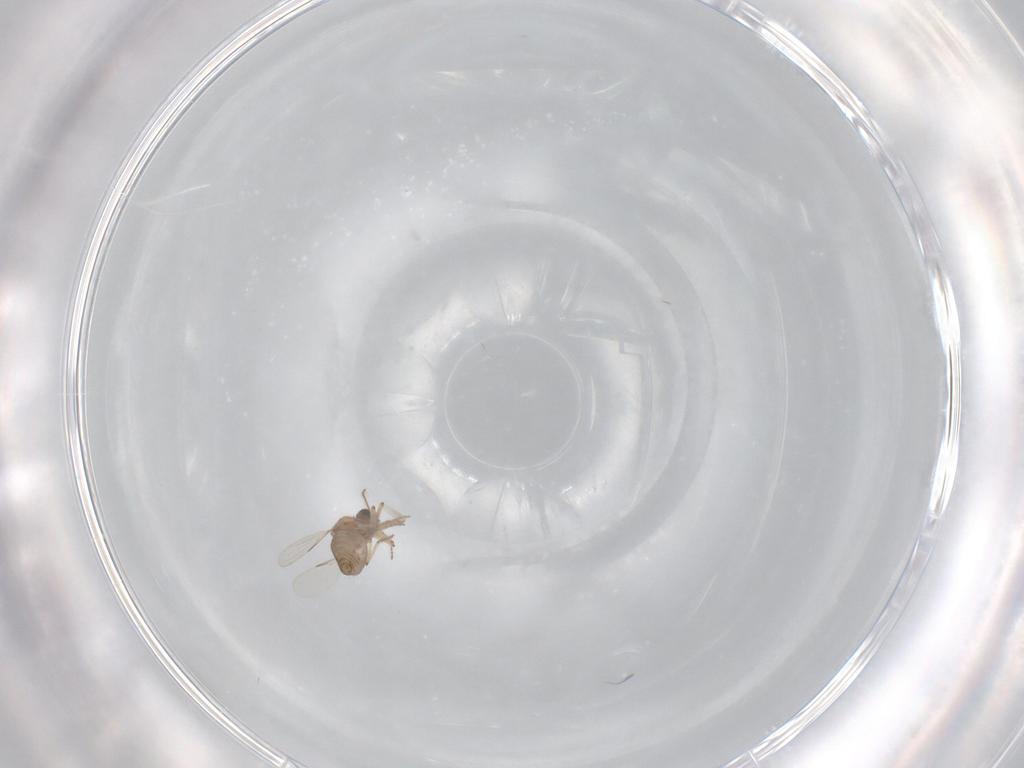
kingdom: Animalia
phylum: Arthropoda
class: Insecta
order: Diptera
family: Ceratopogonidae
